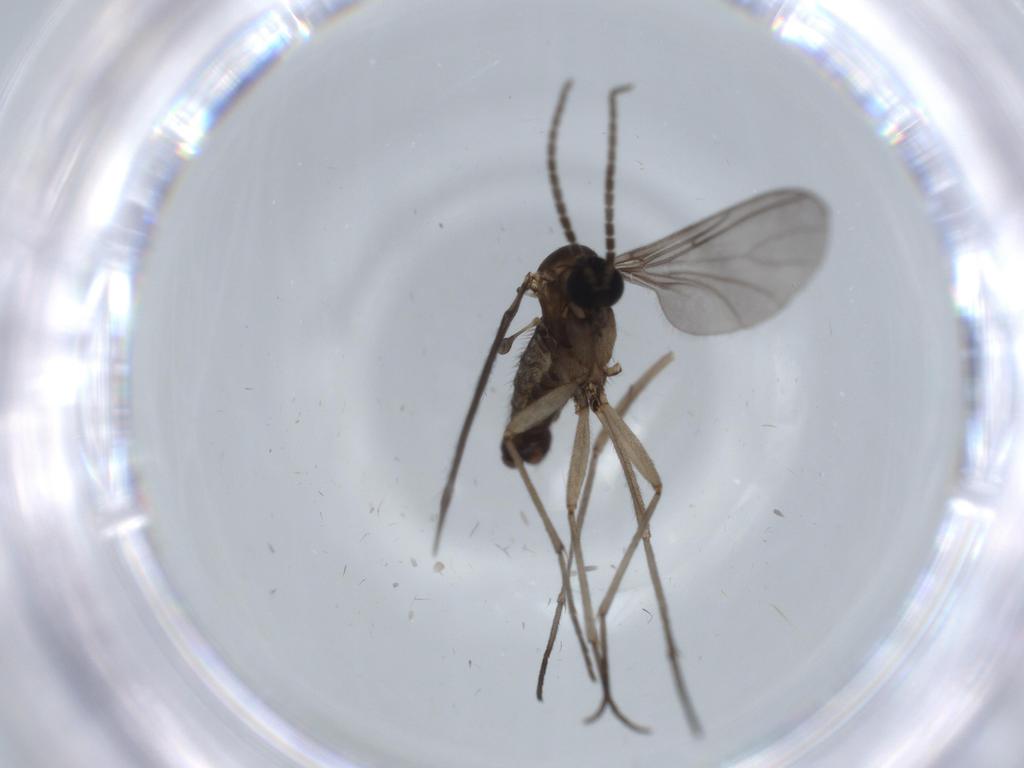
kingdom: Animalia
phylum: Arthropoda
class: Insecta
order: Diptera
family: Sciaridae
